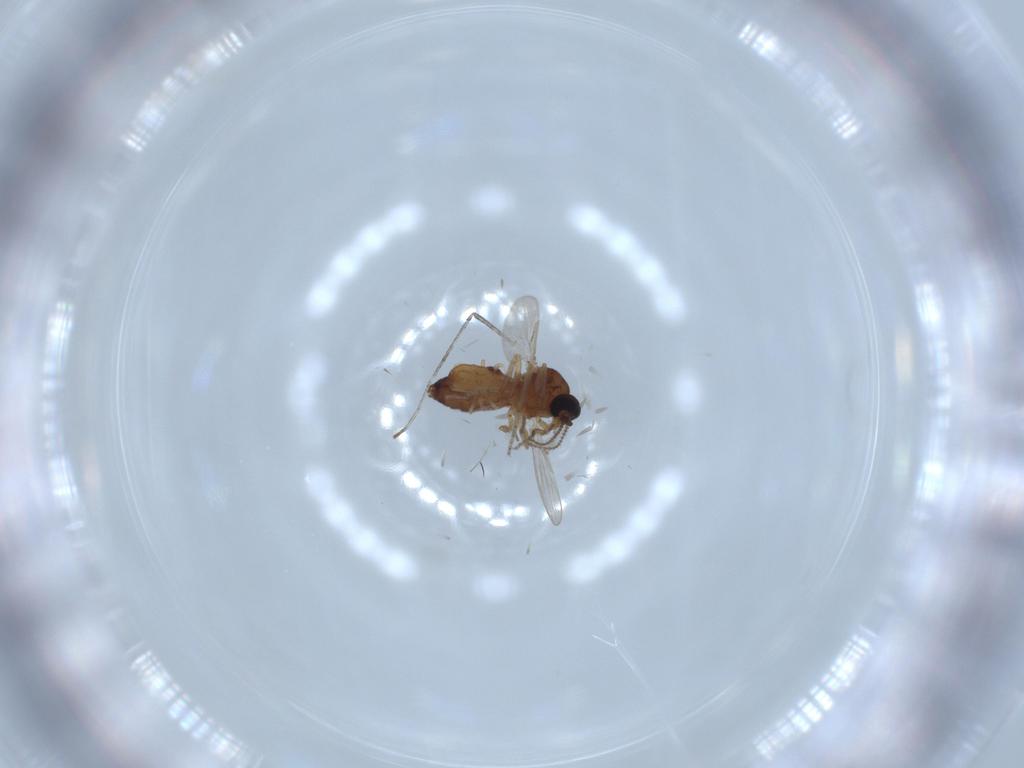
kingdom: Animalia
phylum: Arthropoda
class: Insecta
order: Diptera
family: Ceratopogonidae
